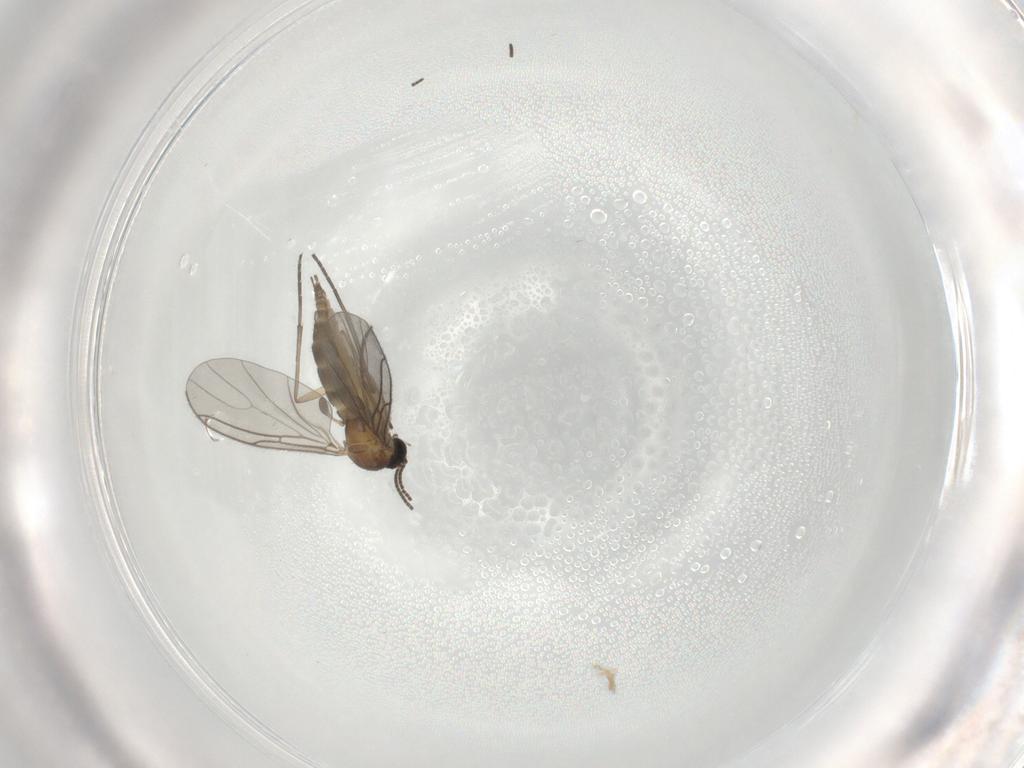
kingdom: Animalia
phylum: Arthropoda
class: Insecta
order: Diptera
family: Sciaridae
